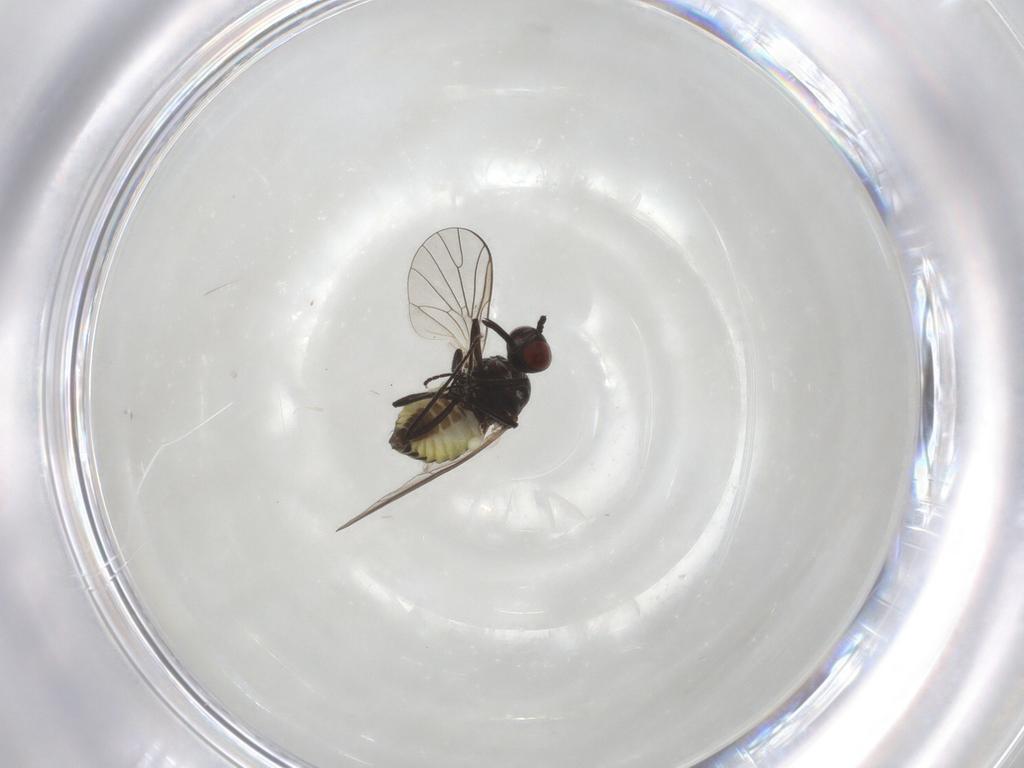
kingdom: Animalia
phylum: Arthropoda
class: Insecta
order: Diptera
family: Bombyliidae
